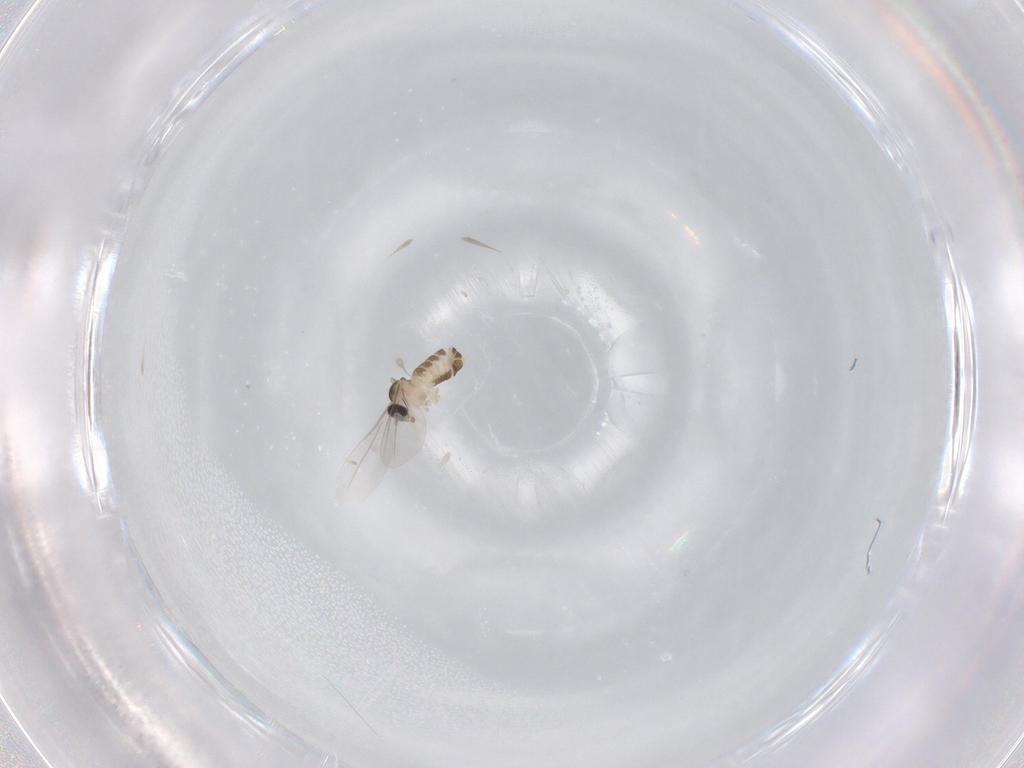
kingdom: Animalia
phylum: Arthropoda
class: Insecta
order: Diptera
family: Cecidomyiidae
